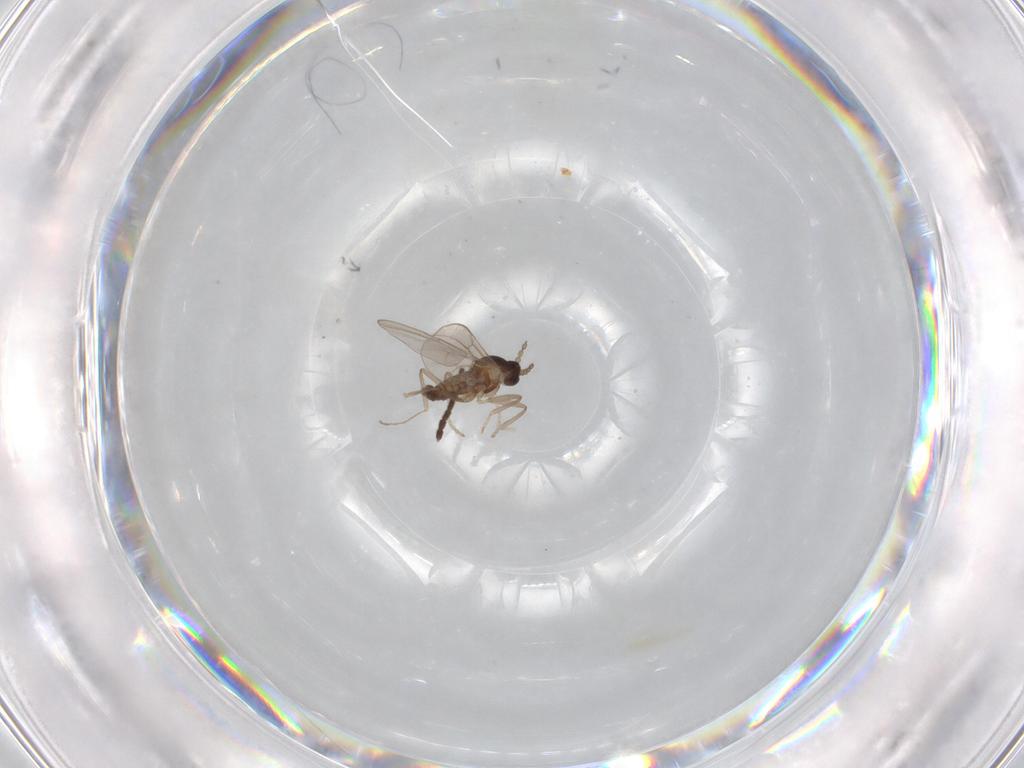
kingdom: Animalia
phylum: Arthropoda
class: Insecta
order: Diptera
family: Cecidomyiidae
